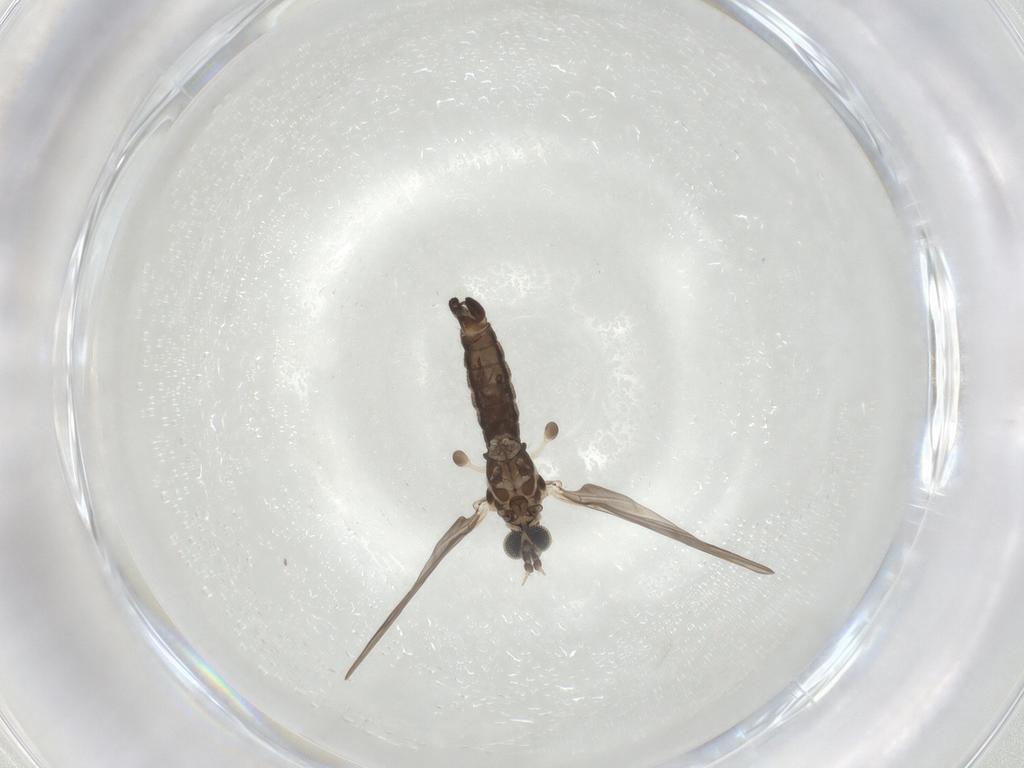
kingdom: Animalia
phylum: Arthropoda
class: Insecta
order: Diptera
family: Limoniidae
